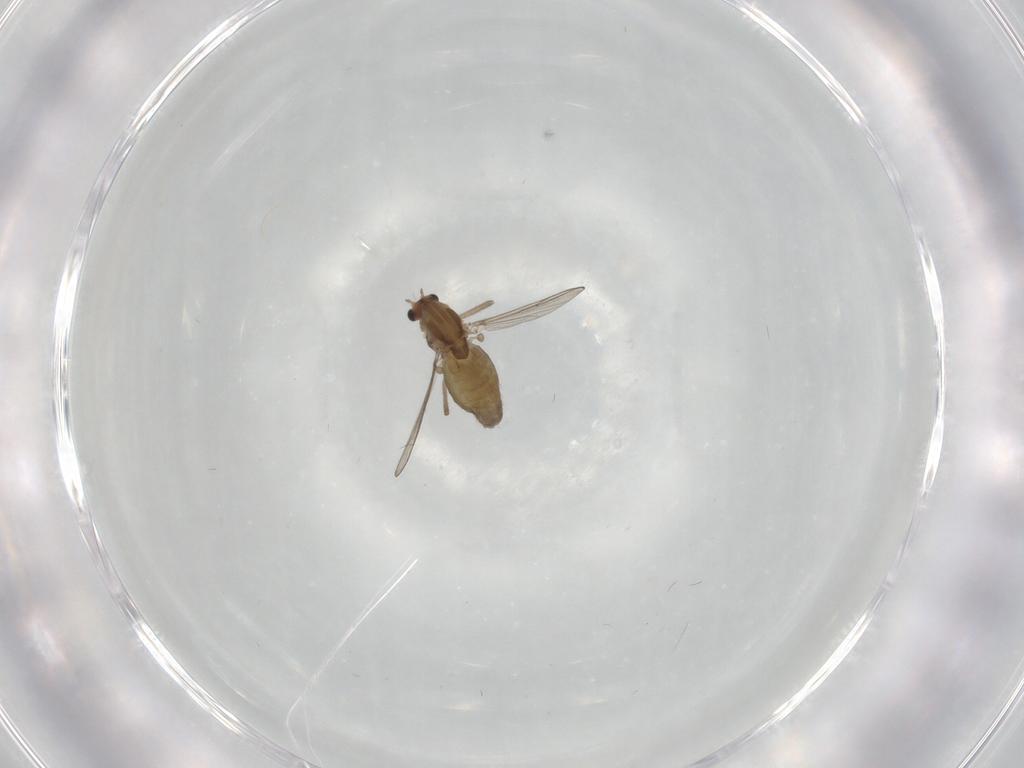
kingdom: Animalia
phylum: Arthropoda
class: Insecta
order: Diptera
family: Chironomidae
